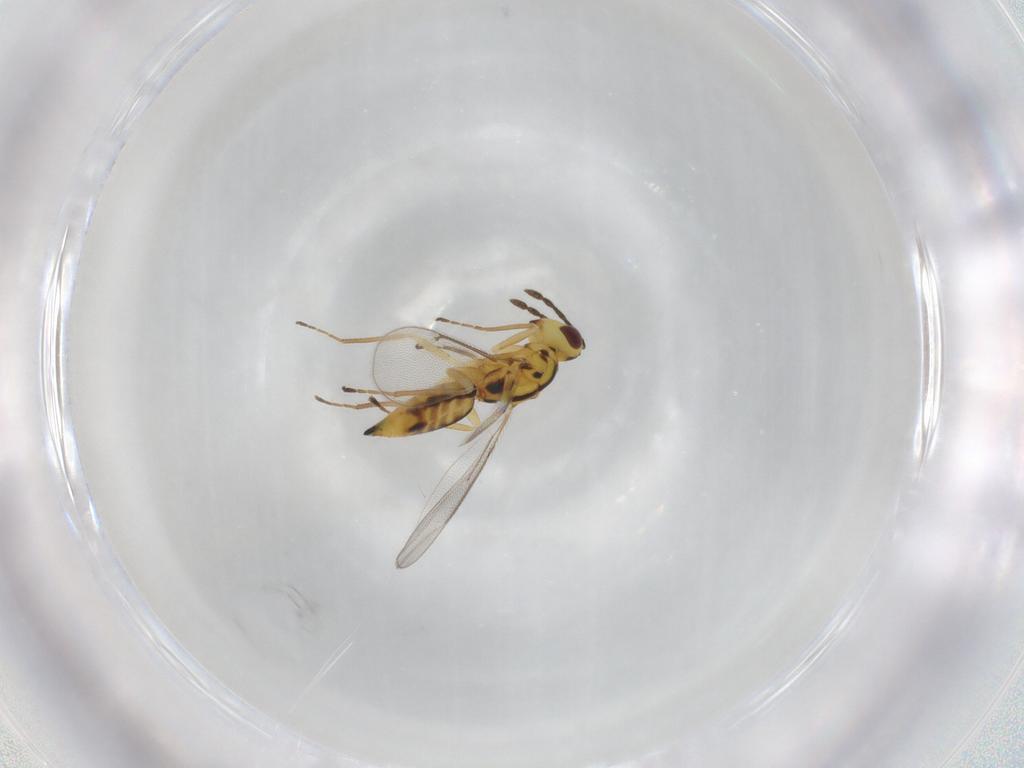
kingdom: Animalia
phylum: Arthropoda
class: Insecta
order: Hymenoptera
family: Eulophidae
